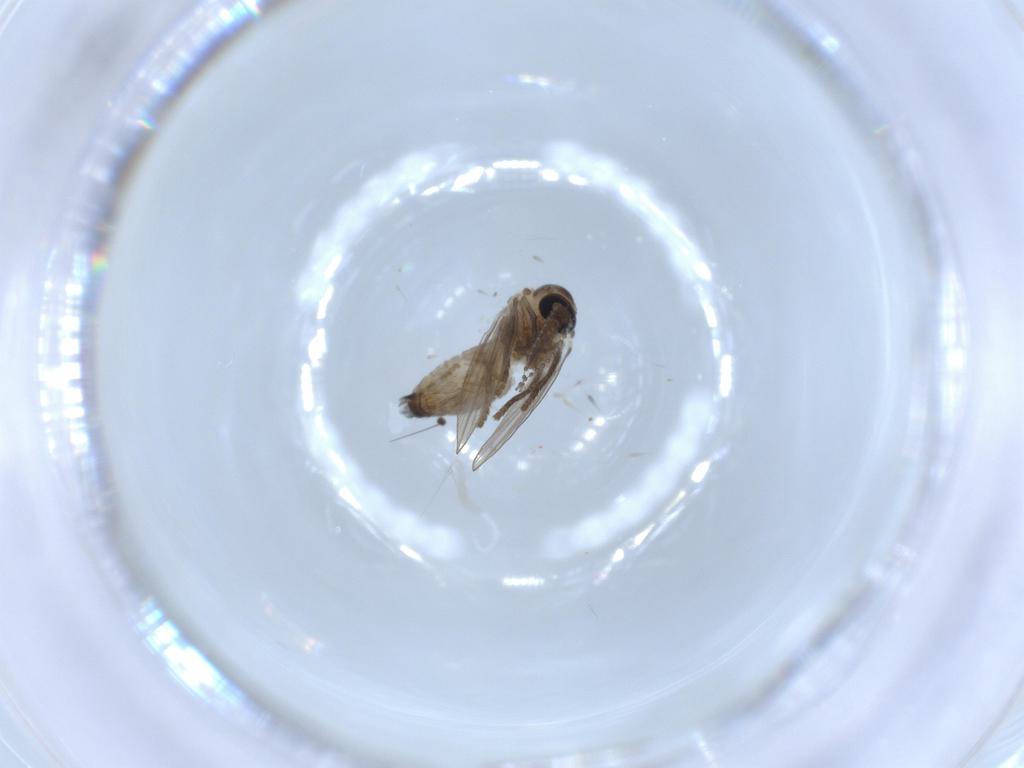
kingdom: Animalia
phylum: Arthropoda
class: Insecta
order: Diptera
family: Psychodidae
